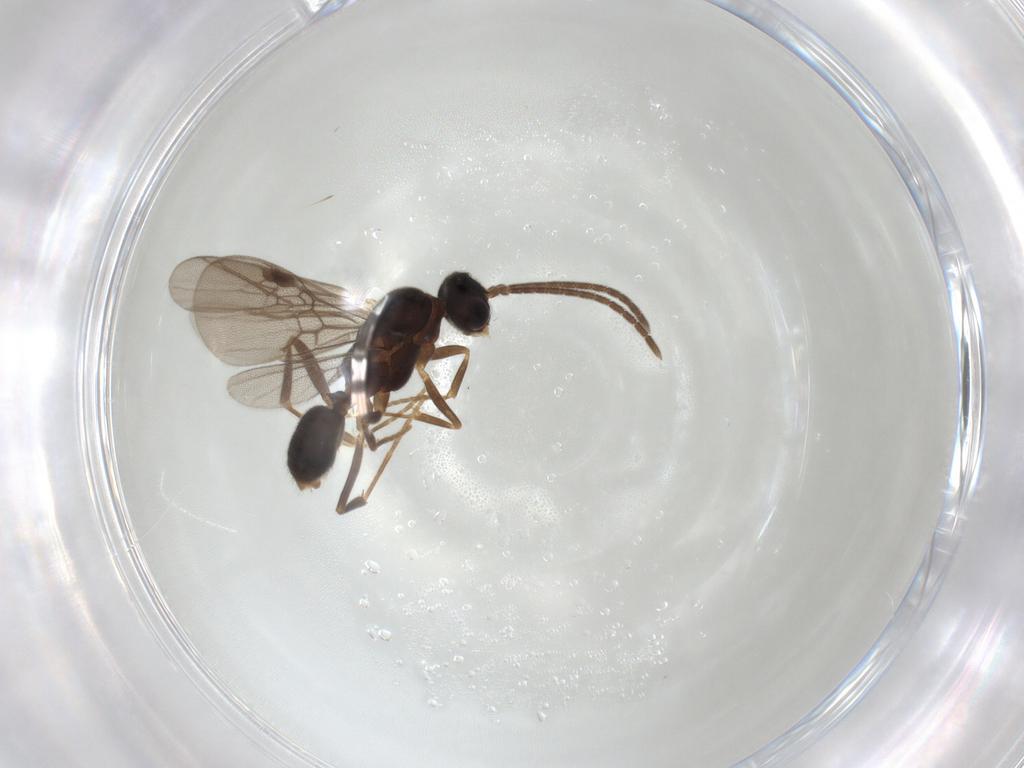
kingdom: Animalia
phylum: Arthropoda
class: Insecta
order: Hymenoptera
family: Formicidae
